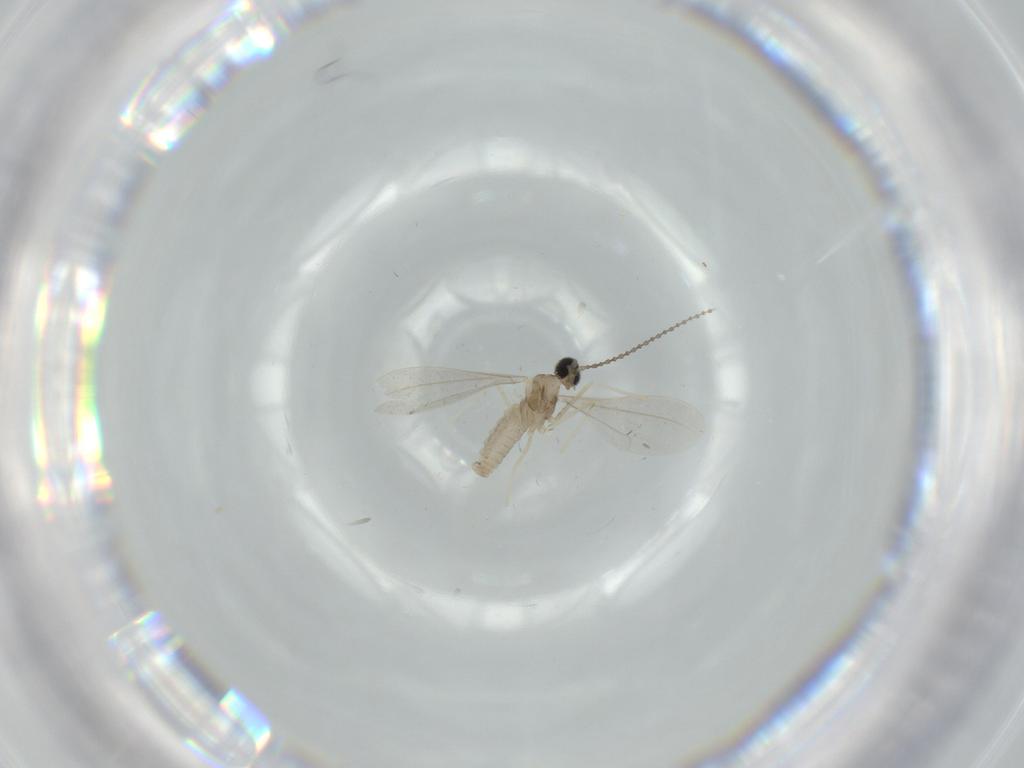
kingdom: Animalia
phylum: Arthropoda
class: Insecta
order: Diptera
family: Cecidomyiidae
